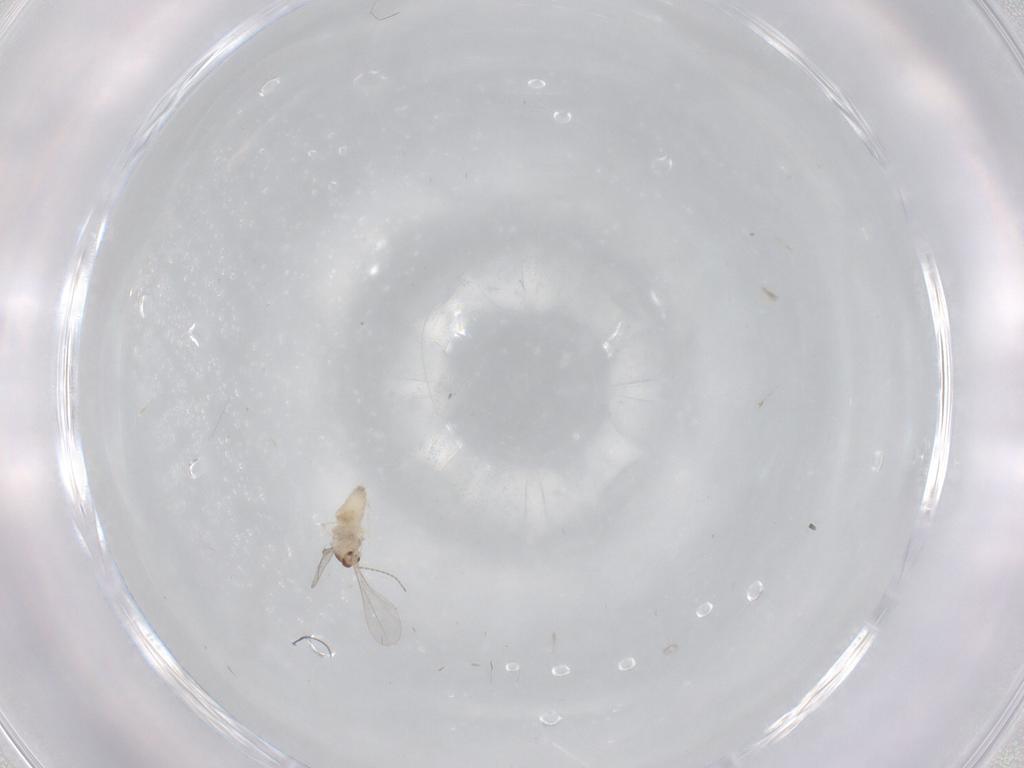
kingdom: Animalia
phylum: Arthropoda
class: Insecta
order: Diptera
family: Cecidomyiidae
